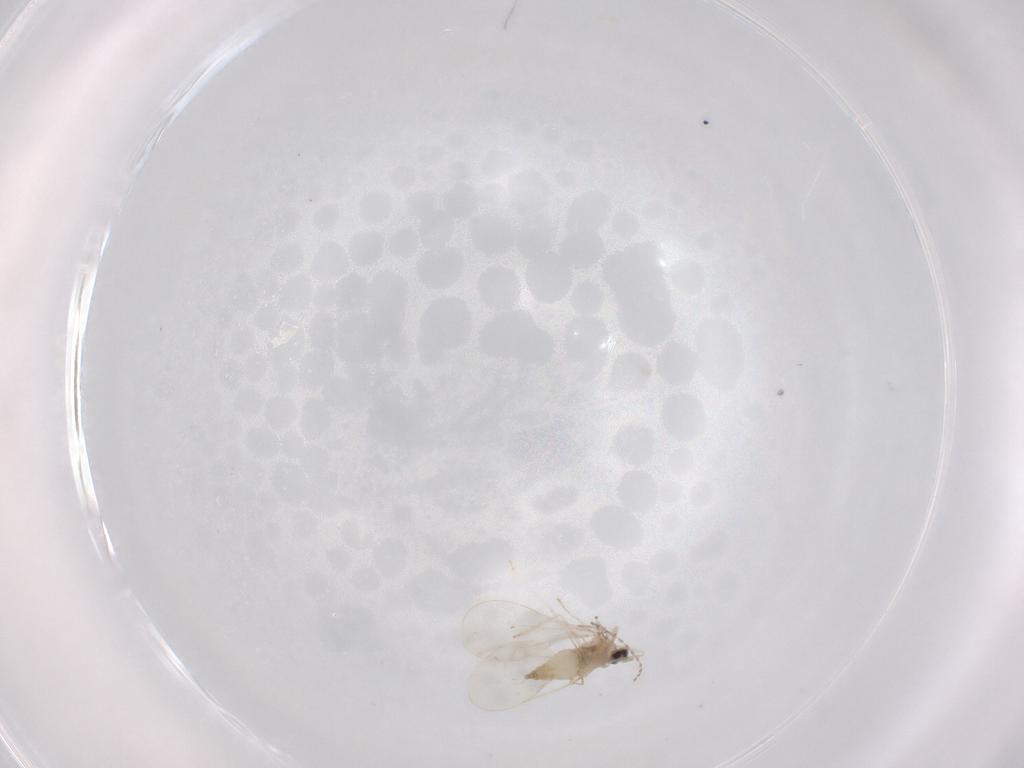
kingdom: Animalia
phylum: Arthropoda
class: Insecta
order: Diptera
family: Cecidomyiidae
